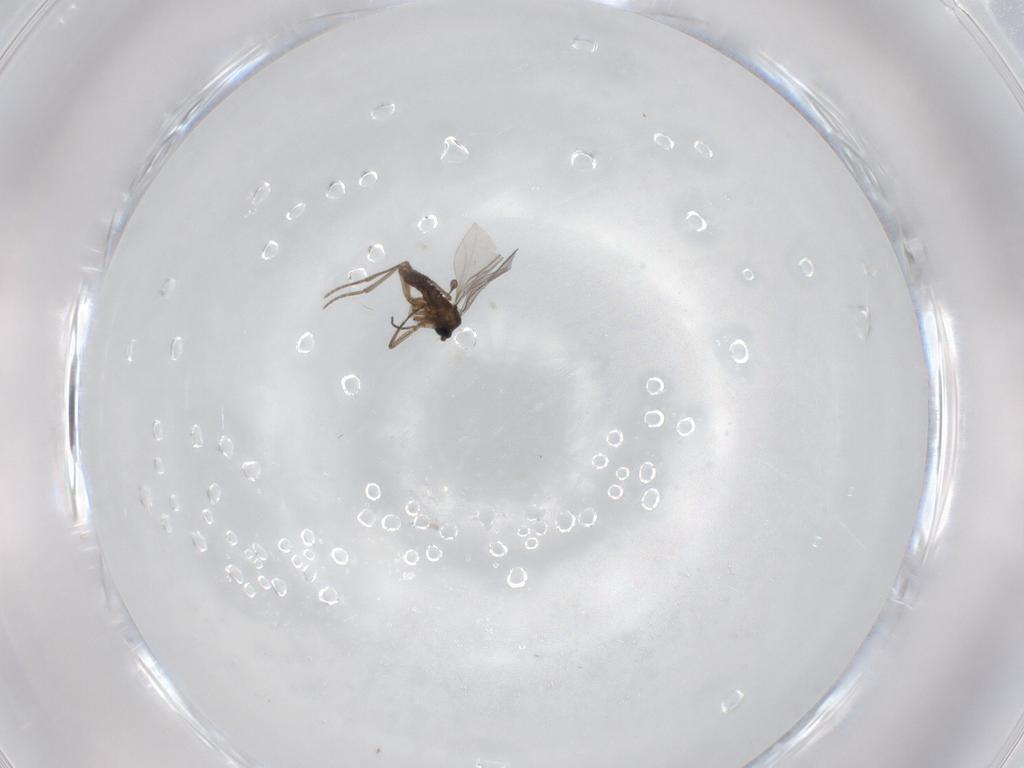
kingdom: Animalia
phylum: Arthropoda
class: Insecta
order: Diptera
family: Sciaridae
